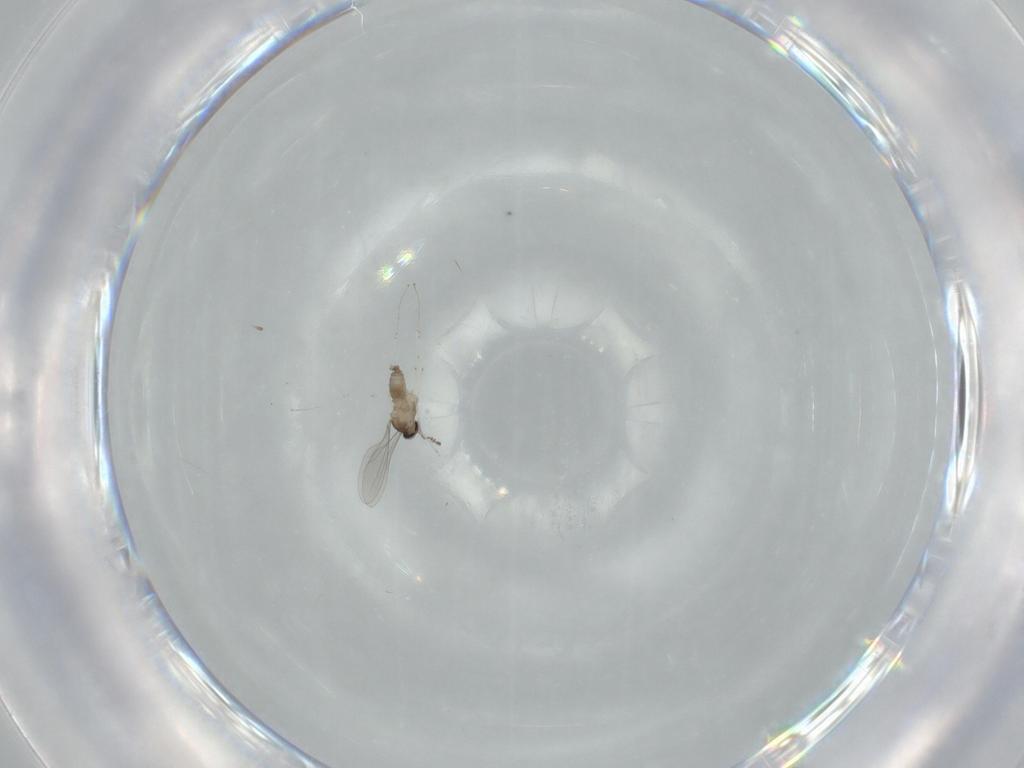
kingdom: Animalia
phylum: Arthropoda
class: Insecta
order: Diptera
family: Cecidomyiidae
